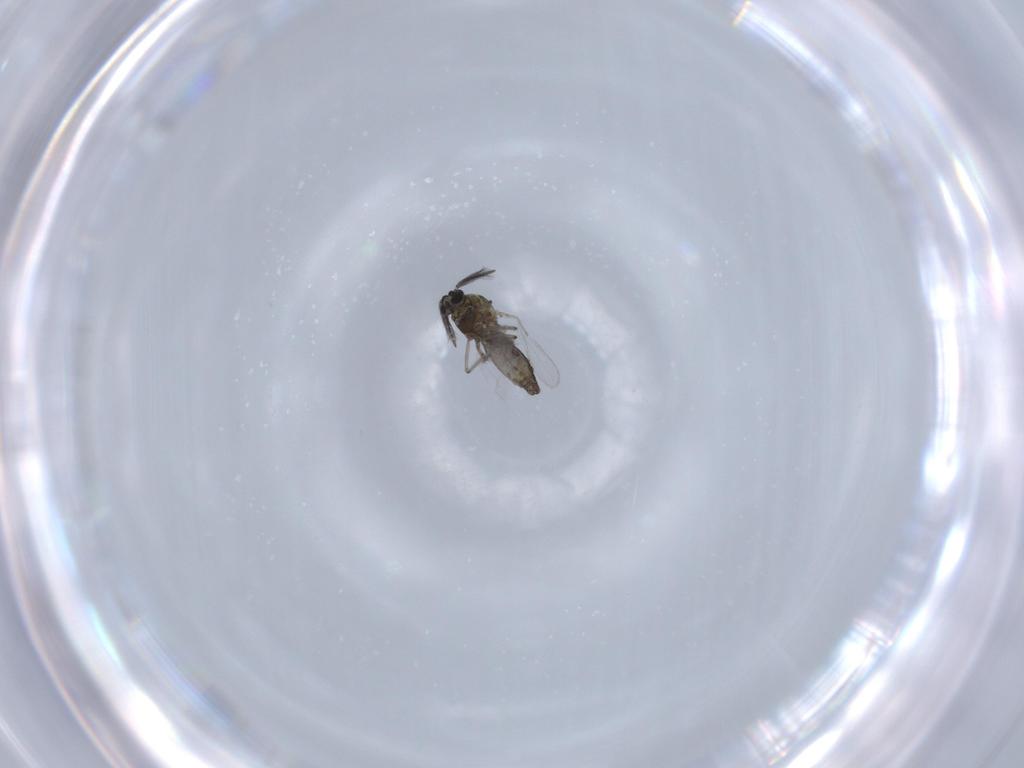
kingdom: Animalia
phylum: Arthropoda
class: Insecta
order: Diptera
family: Ceratopogonidae
